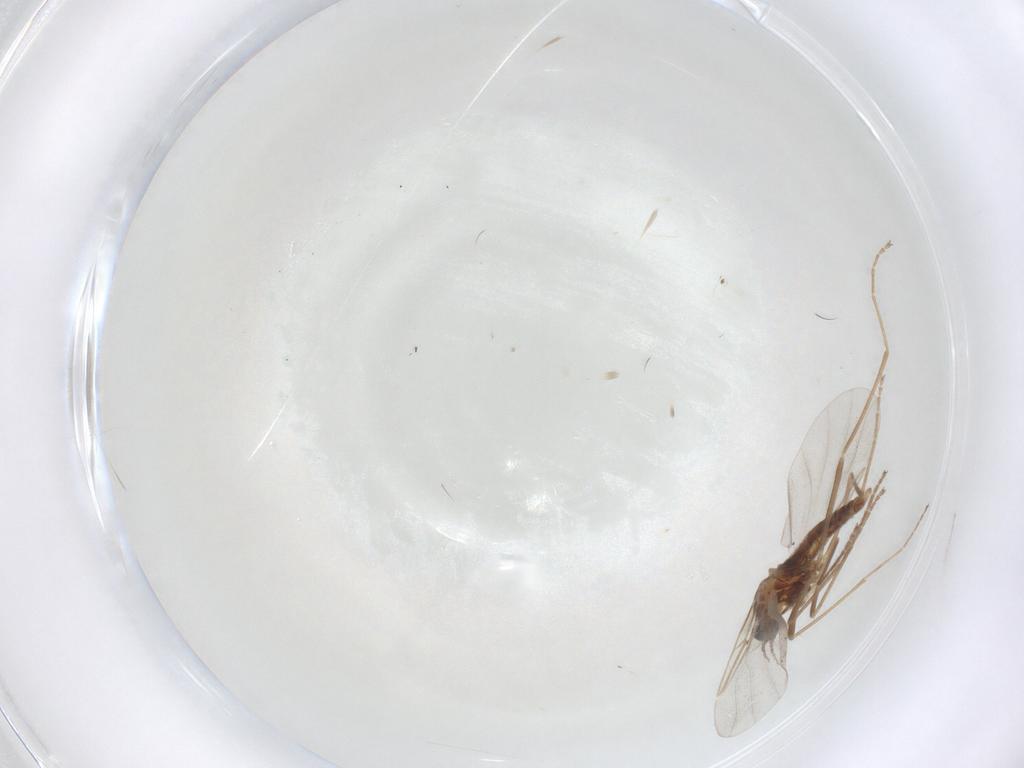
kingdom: Animalia
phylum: Arthropoda
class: Insecta
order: Diptera
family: Cecidomyiidae
